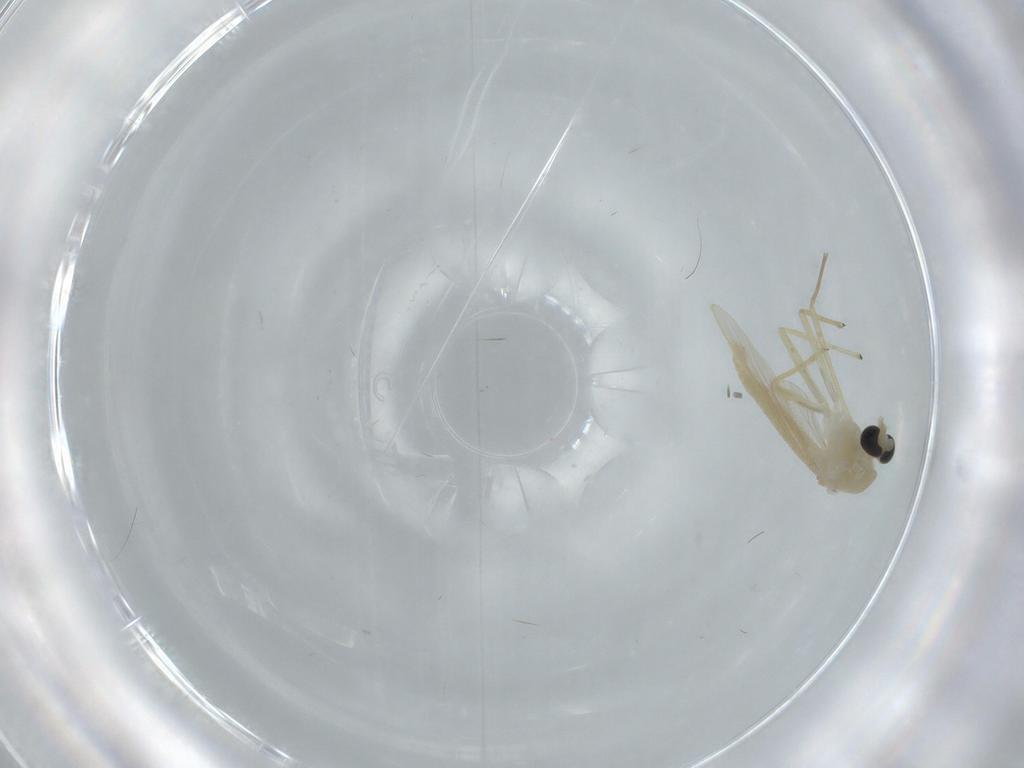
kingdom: Animalia
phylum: Arthropoda
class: Insecta
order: Diptera
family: Chironomidae
